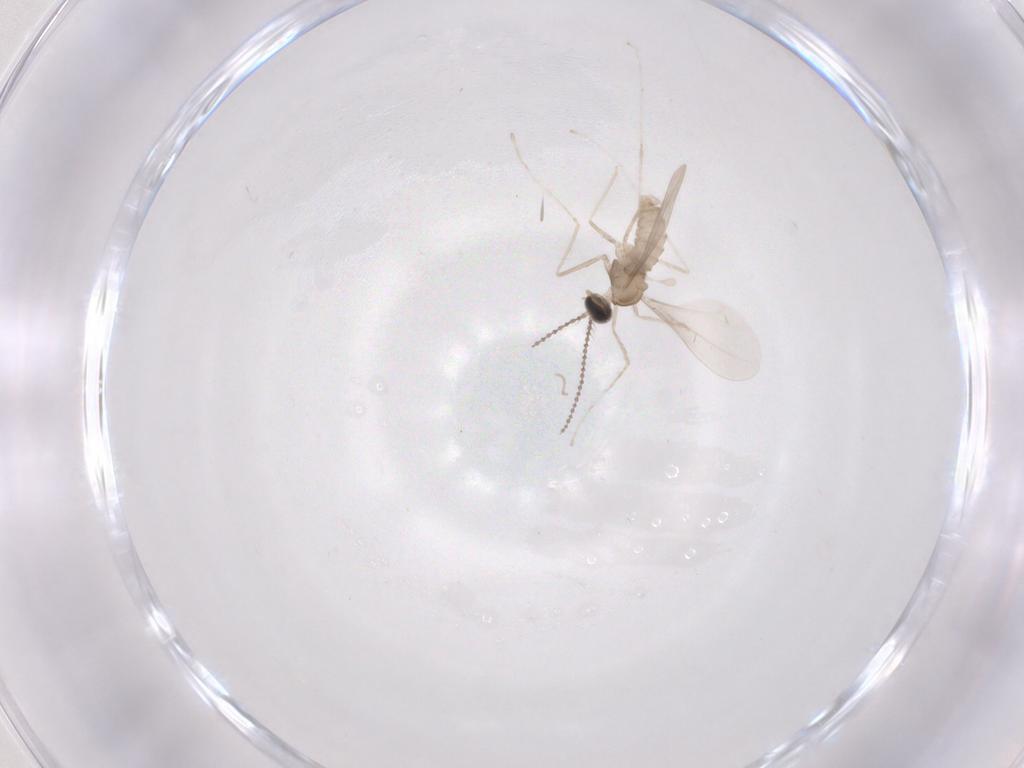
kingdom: Animalia
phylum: Arthropoda
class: Insecta
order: Diptera
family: Cecidomyiidae
